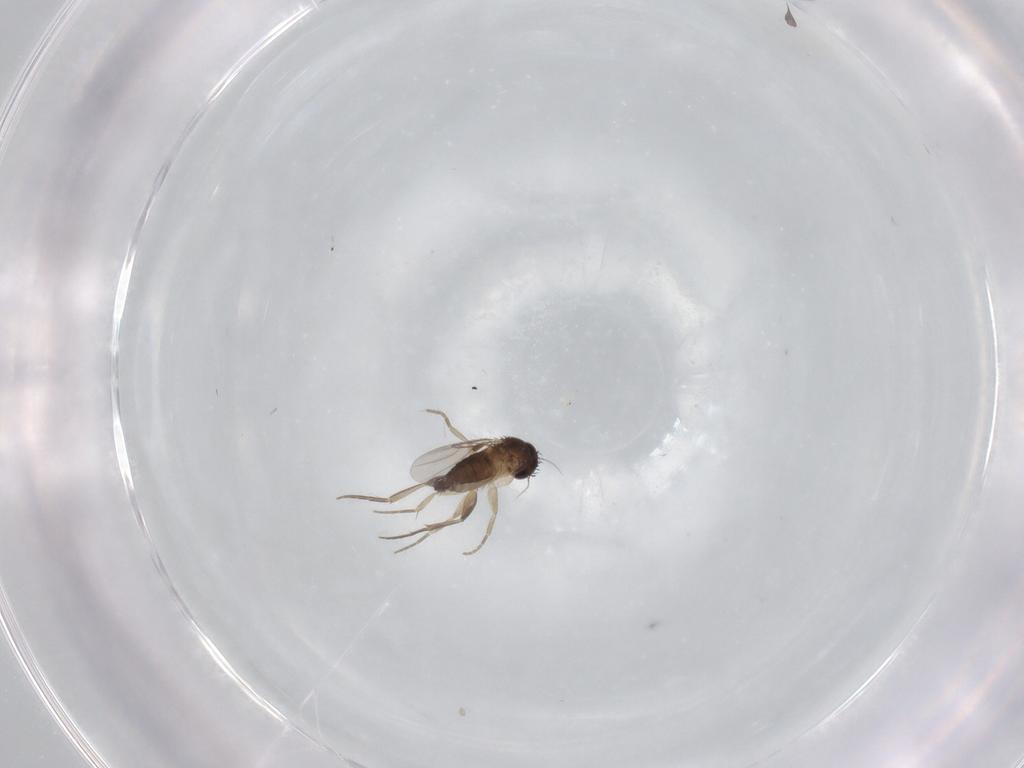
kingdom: Animalia
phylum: Arthropoda
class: Insecta
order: Diptera
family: Phoridae
